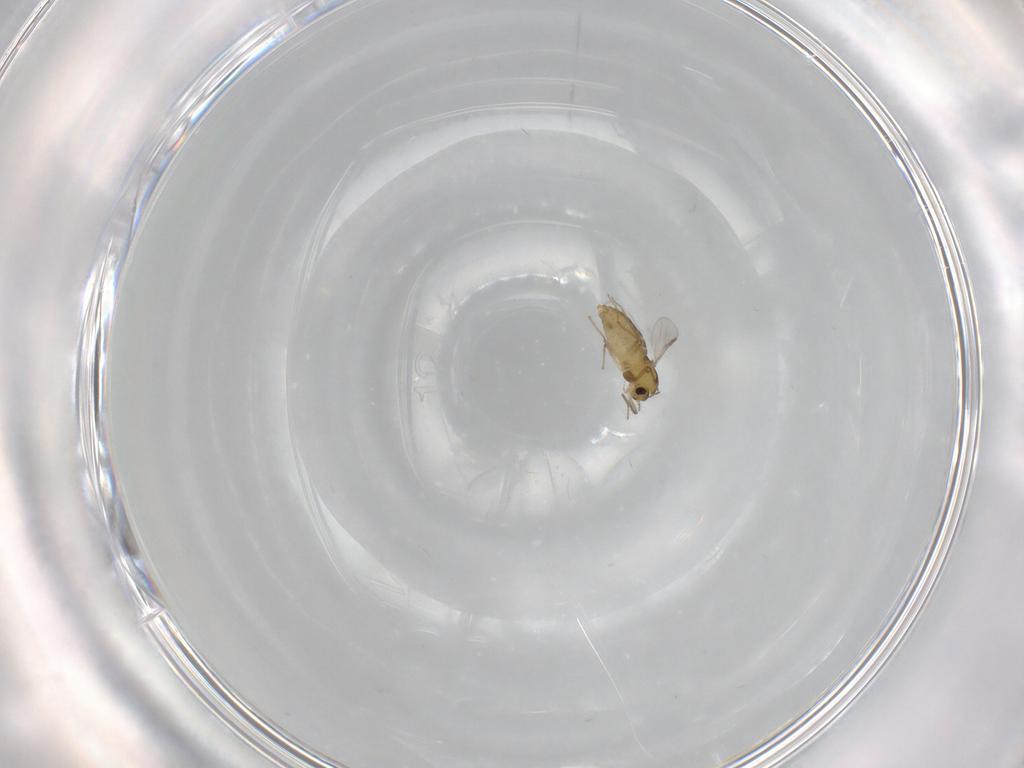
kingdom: Animalia
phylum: Arthropoda
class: Insecta
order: Diptera
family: Chironomidae
